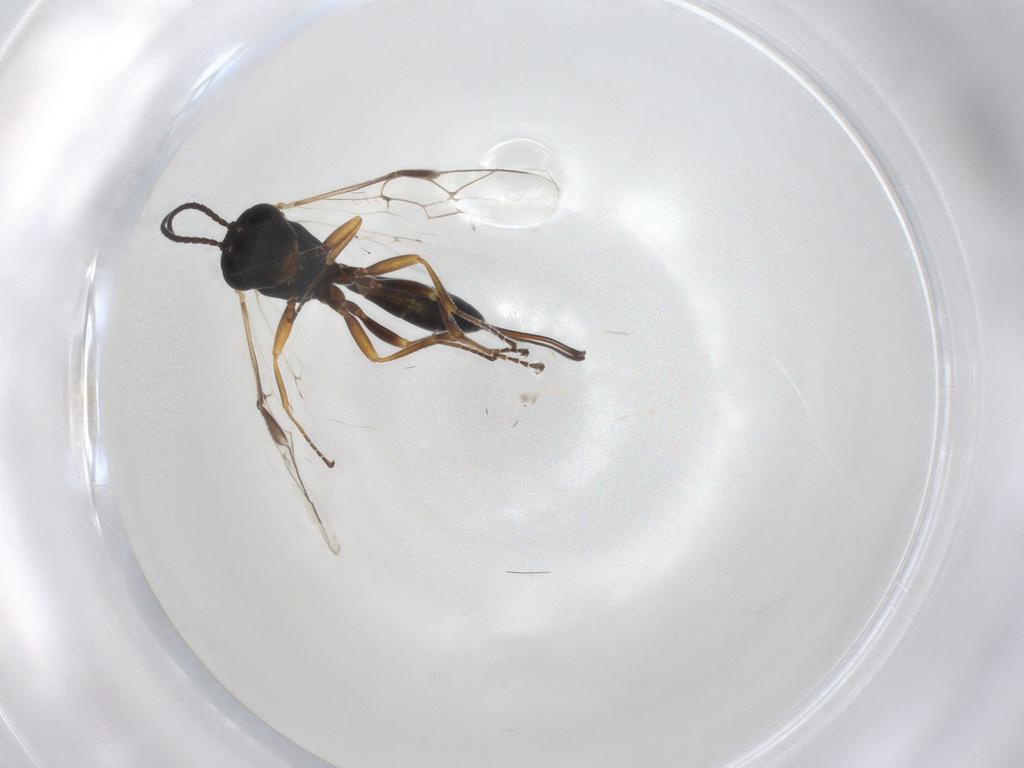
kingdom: Animalia
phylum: Arthropoda
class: Insecta
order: Hymenoptera
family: Ichneumonidae
